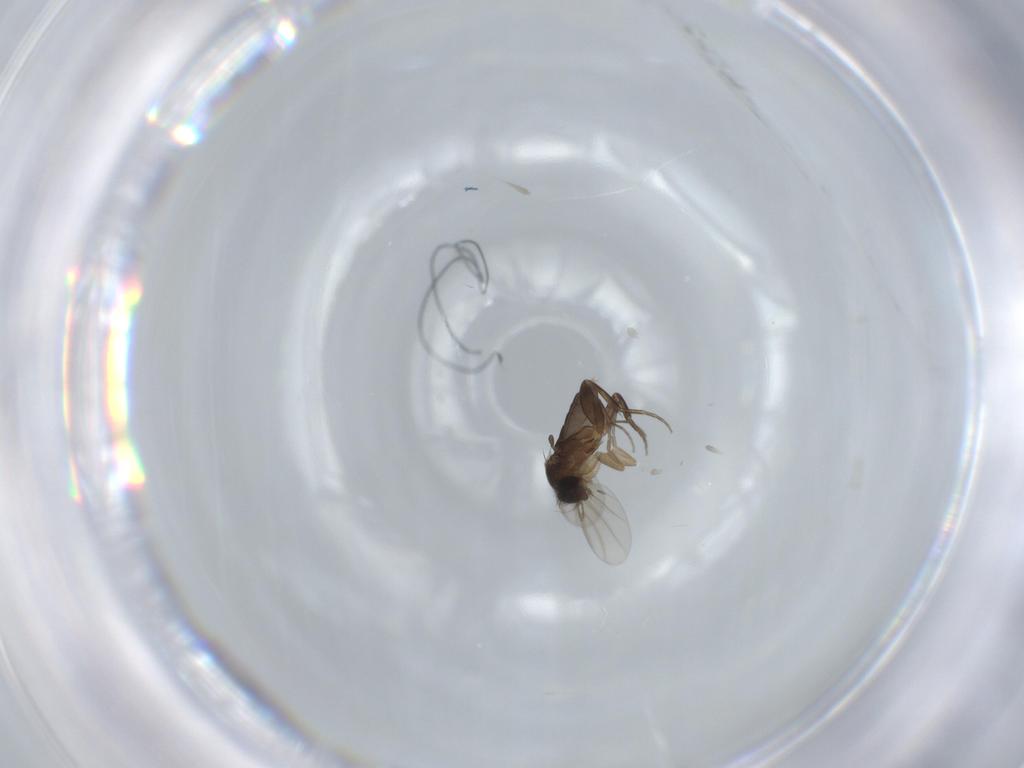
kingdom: Animalia
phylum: Arthropoda
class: Insecta
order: Diptera
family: Phoridae
